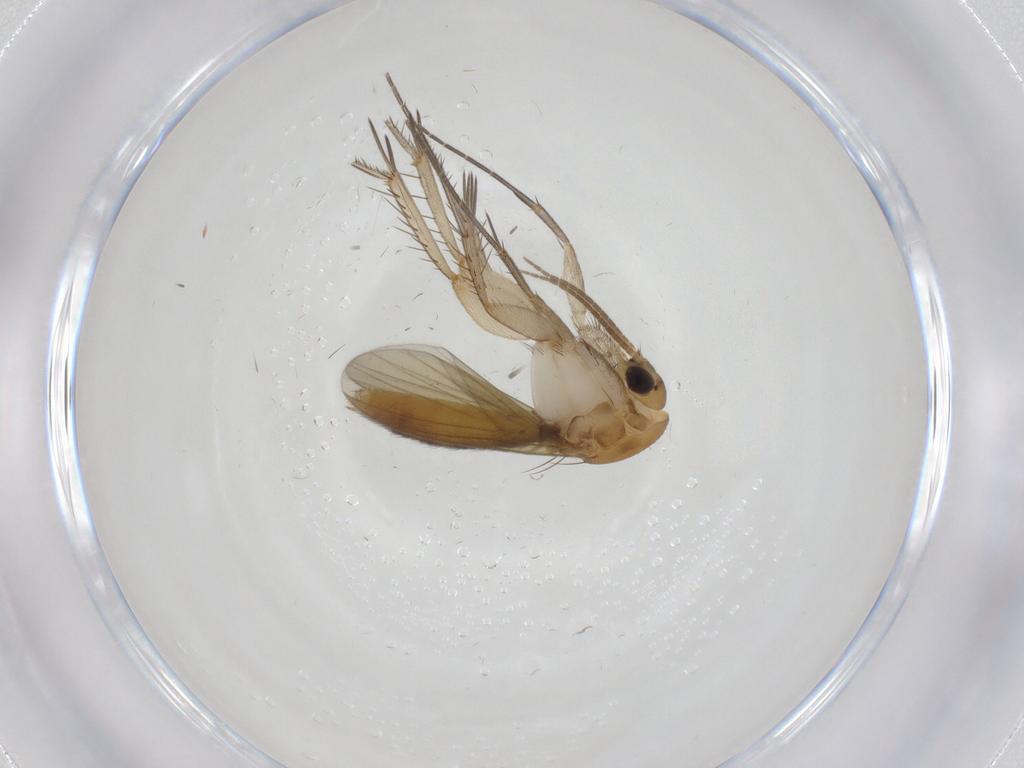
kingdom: Animalia
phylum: Arthropoda
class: Insecta
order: Diptera
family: Mycetophilidae
